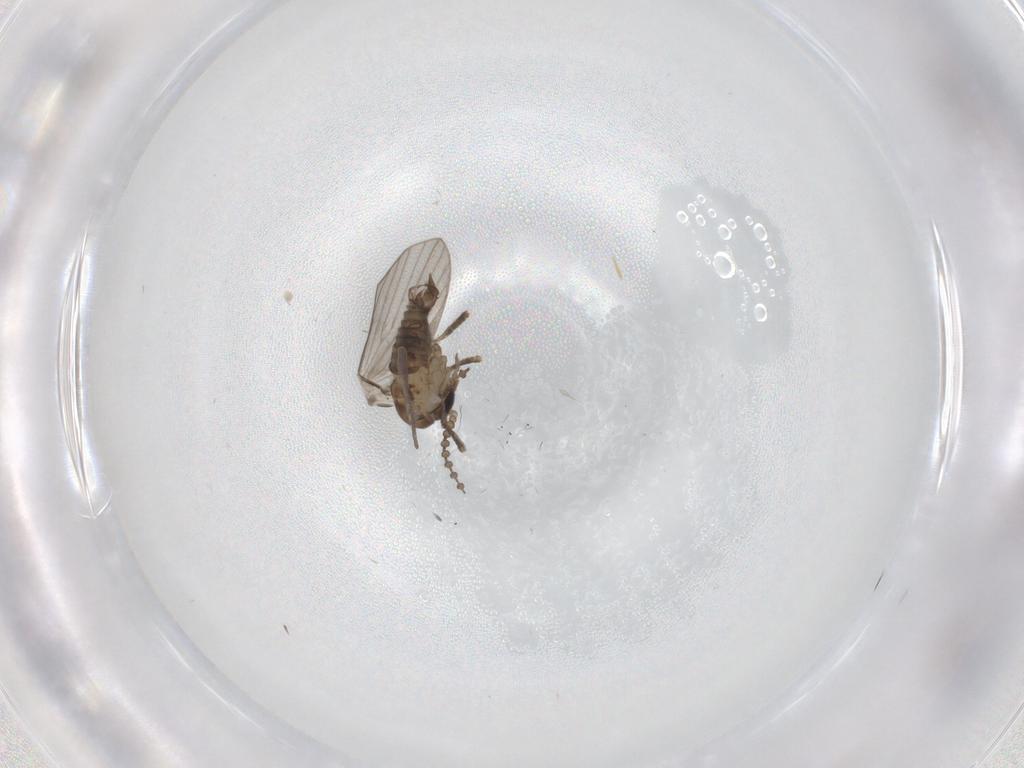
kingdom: Animalia
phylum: Arthropoda
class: Insecta
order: Diptera
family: Psychodidae
